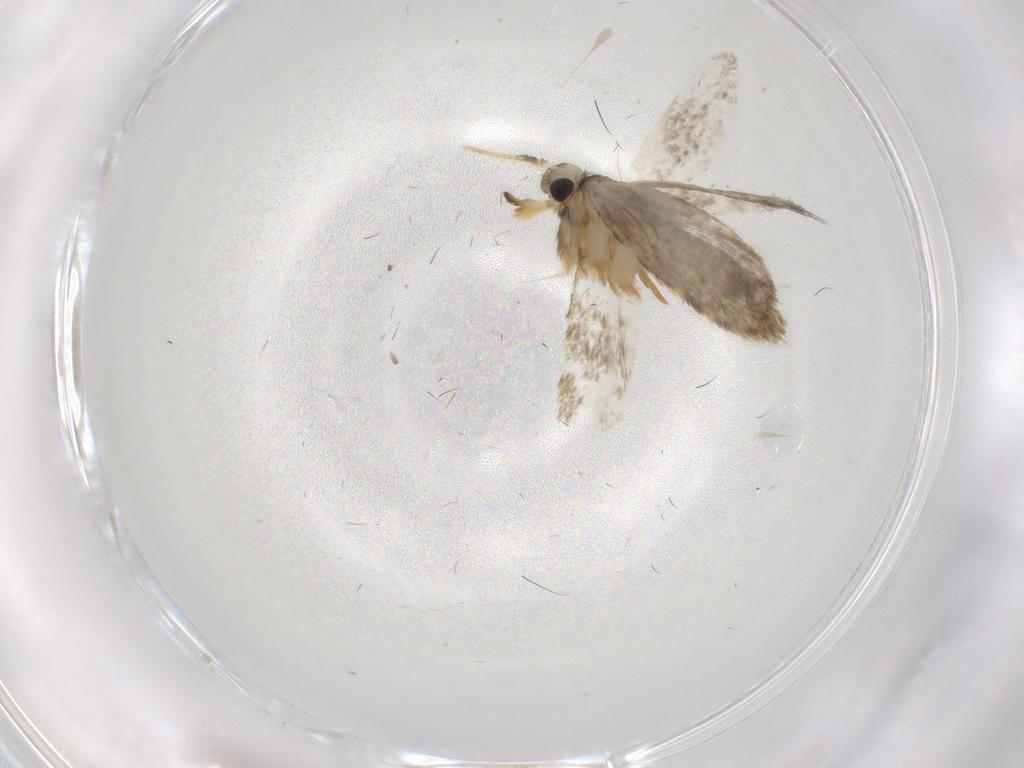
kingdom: Animalia
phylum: Arthropoda
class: Insecta
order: Lepidoptera
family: Psychidae
